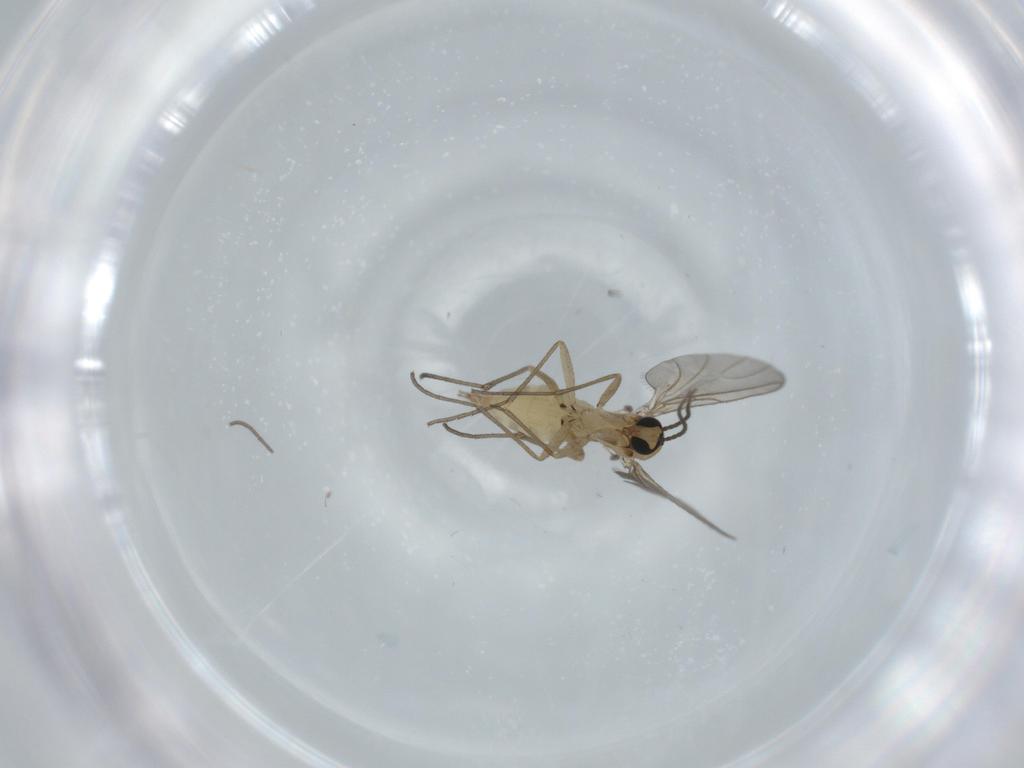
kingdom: Animalia
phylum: Arthropoda
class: Insecta
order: Diptera
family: Sciaridae
